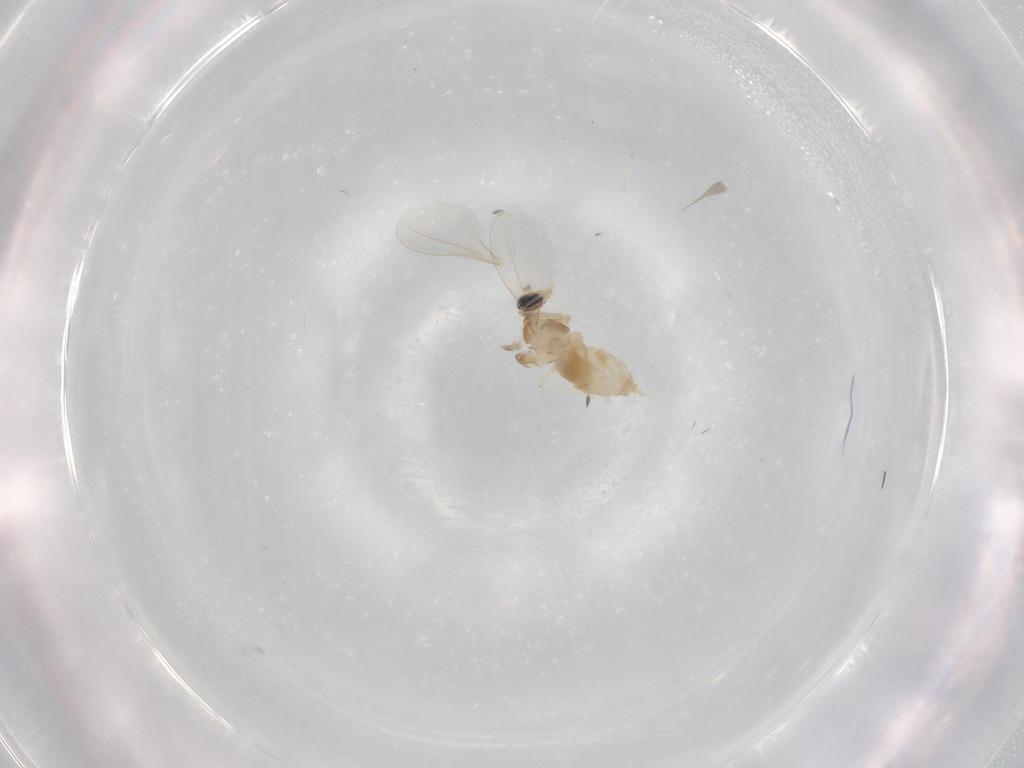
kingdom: Animalia
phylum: Arthropoda
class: Insecta
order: Diptera
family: Cecidomyiidae
